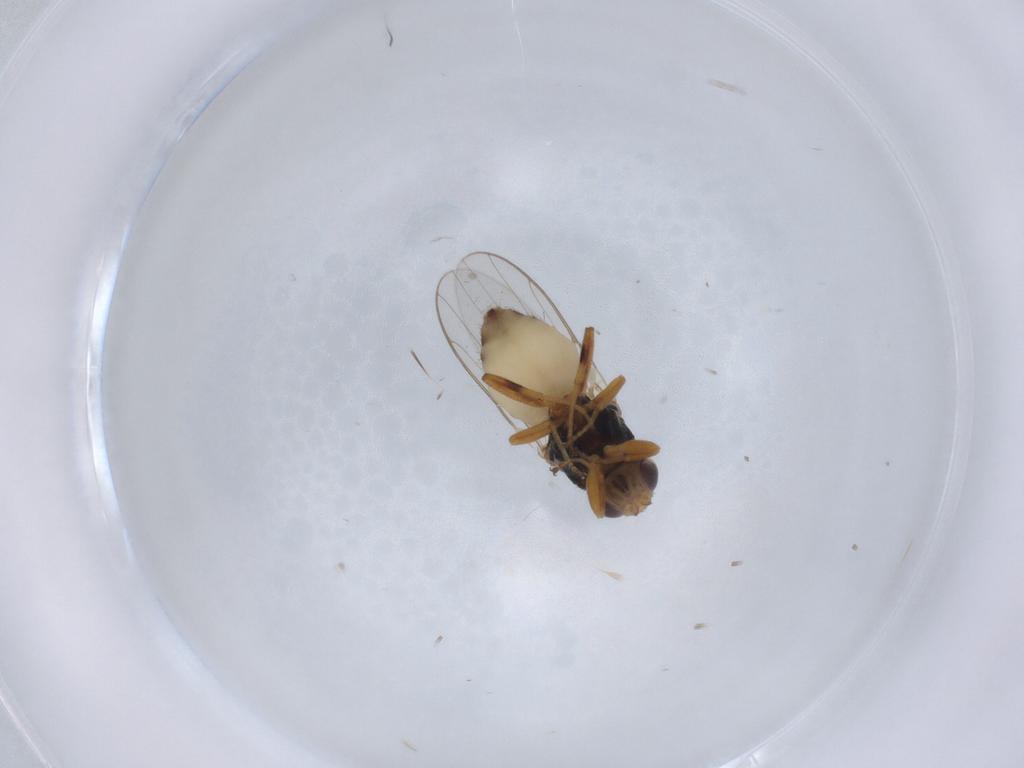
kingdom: Animalia
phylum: Arthropoda
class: Insecta
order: Diptera
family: Chloropidae
